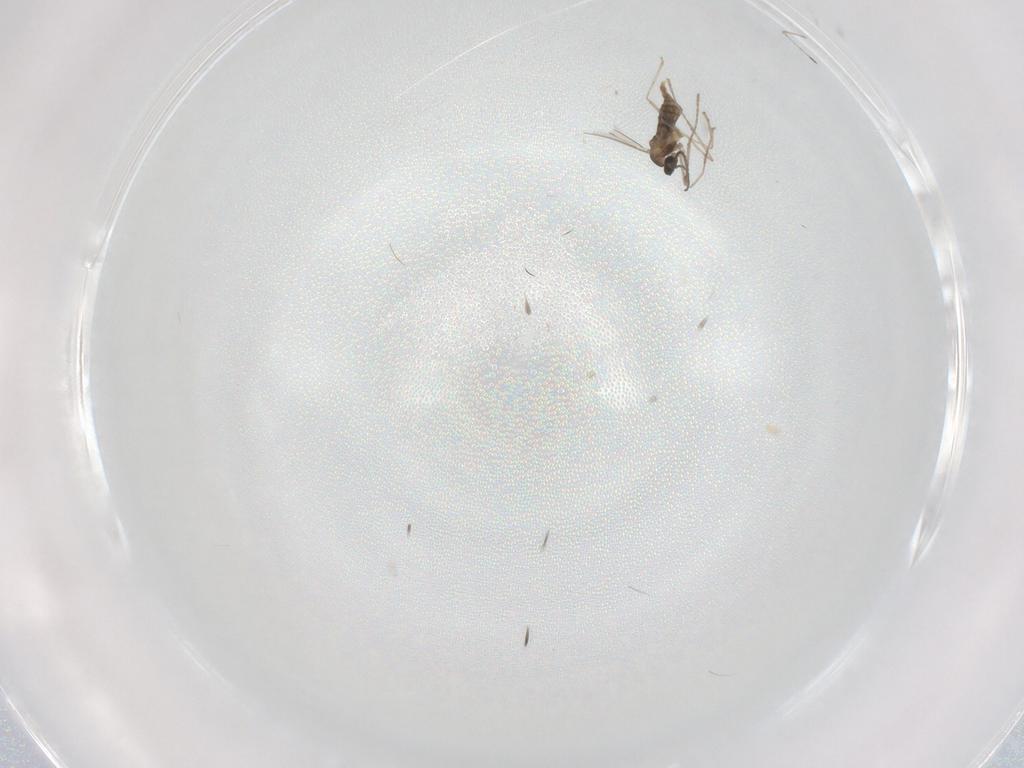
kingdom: Animalia
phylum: Arthropoda
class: Insecta
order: Diptera
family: Chironomidae
